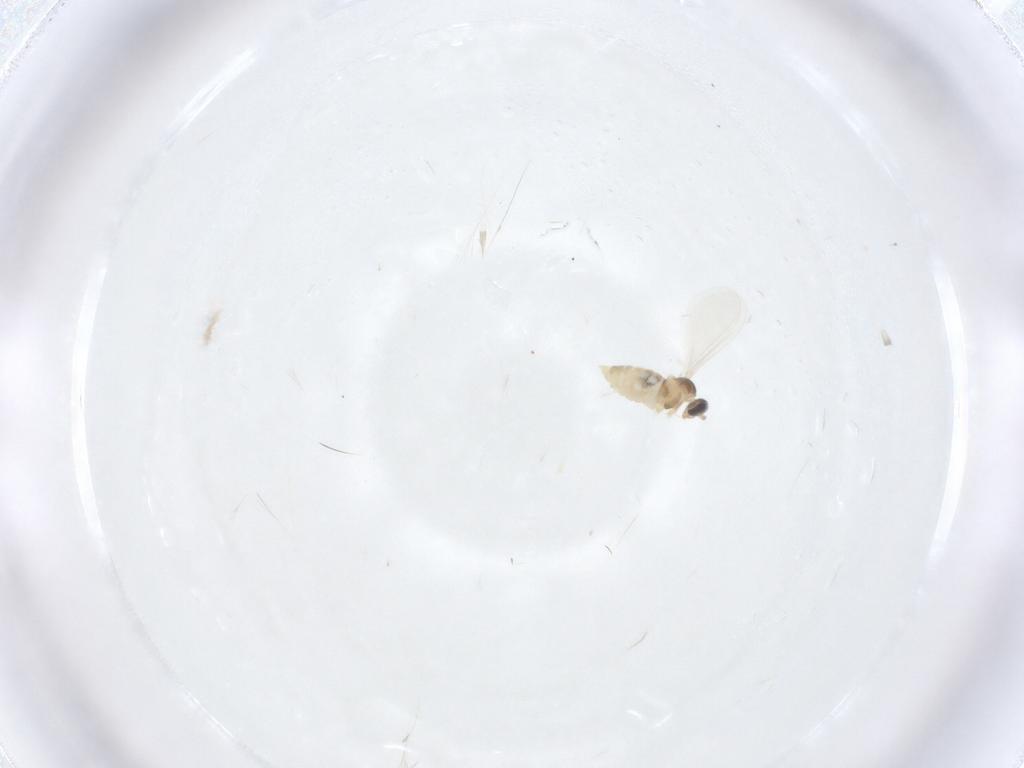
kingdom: Animalia
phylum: Arthropoda
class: Insecta
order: Diptera
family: Cecidomyiidae
